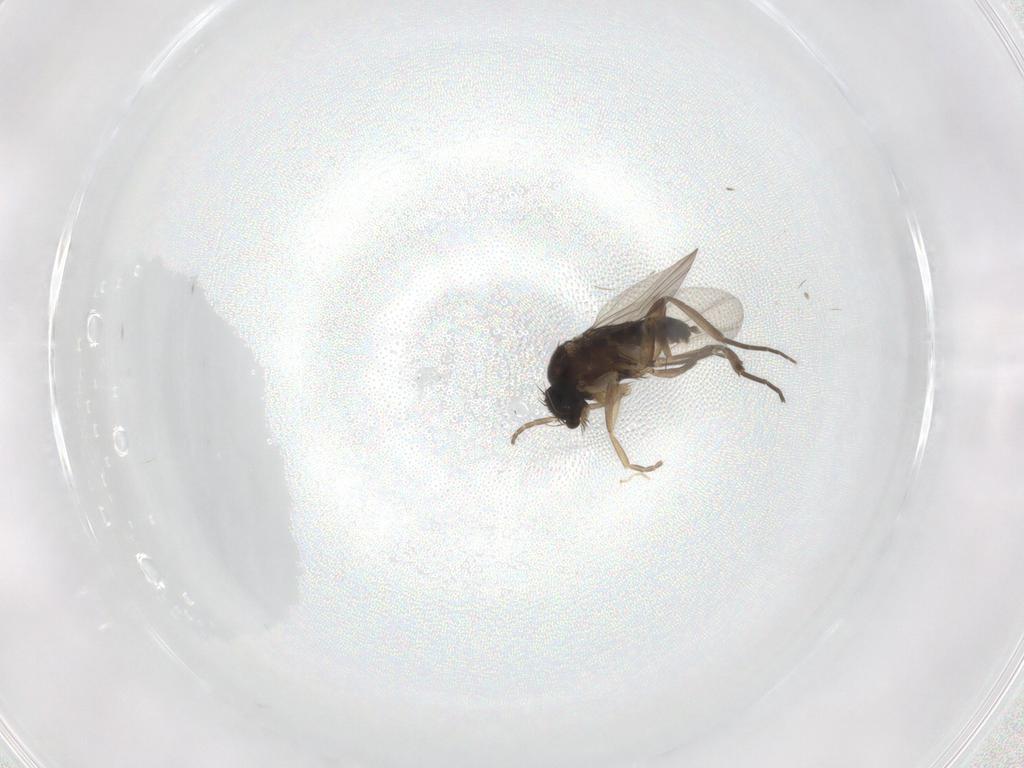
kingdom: Animalia
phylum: Arthropoda
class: Insecta
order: Diptera
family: Phoridae
